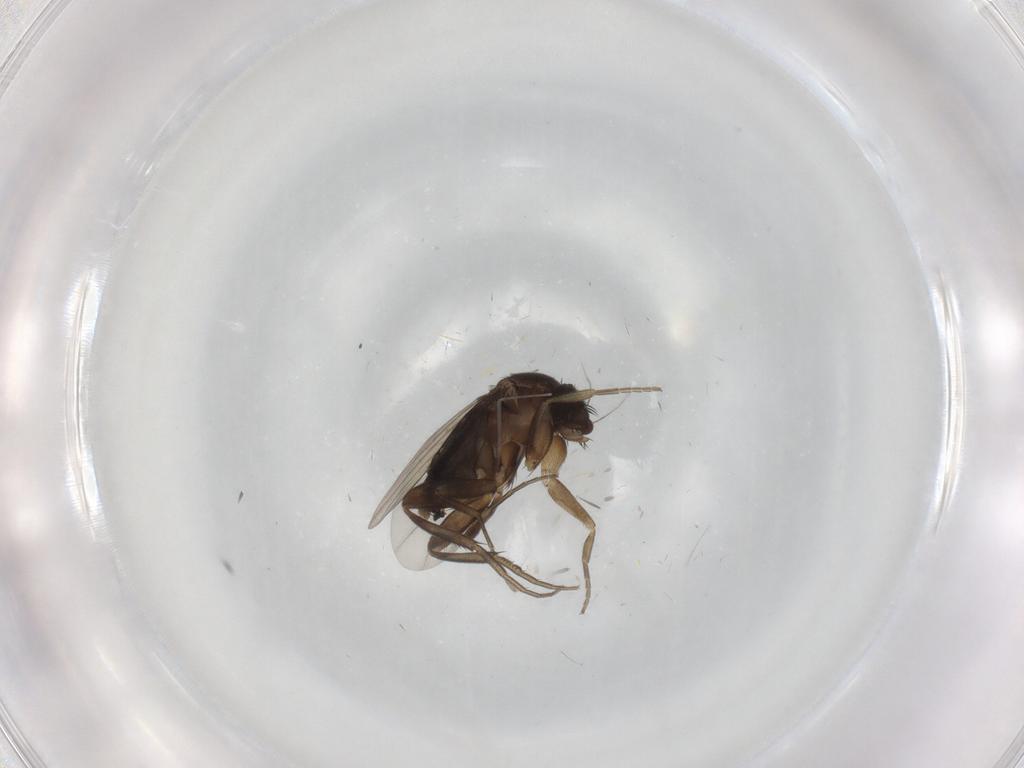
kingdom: Animalia
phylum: Arthropoda
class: Insecta
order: Diptera
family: Phoridae
